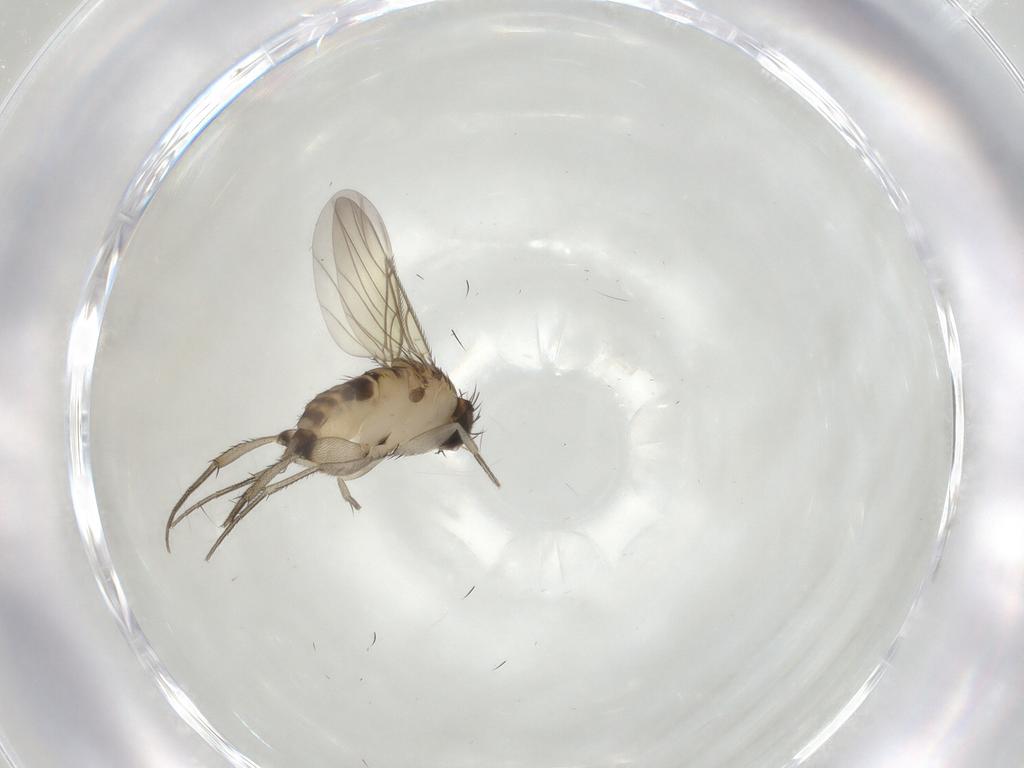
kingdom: Animalia
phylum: Arthropoda
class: Insecta
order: Diptera
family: Phoridae
